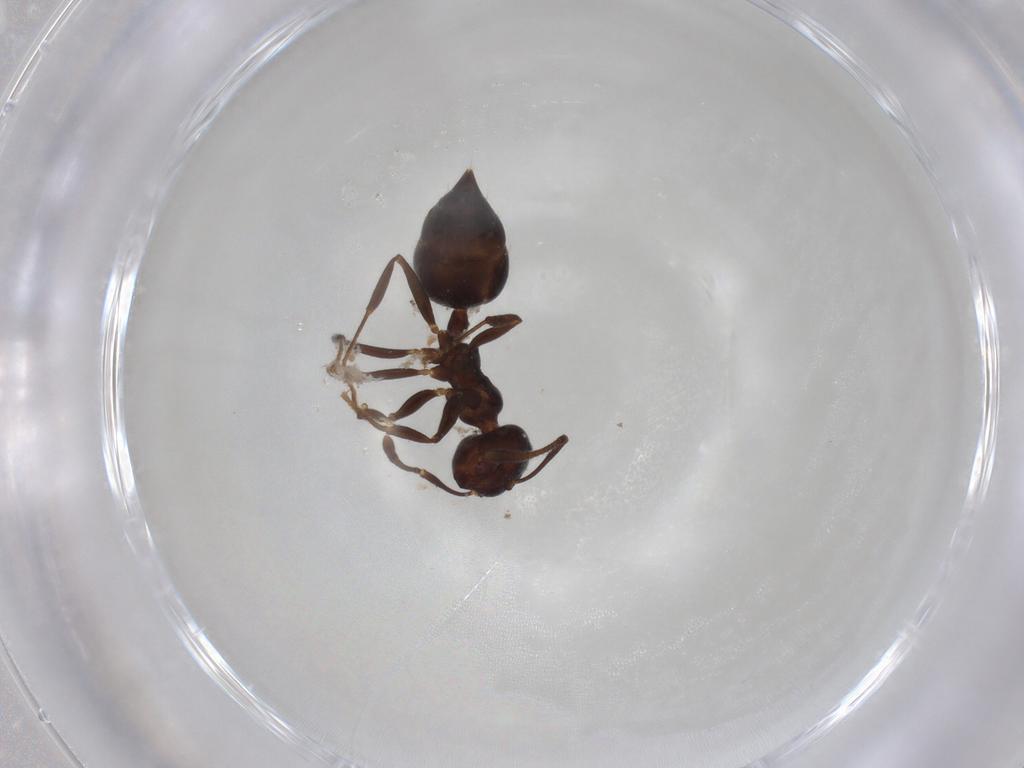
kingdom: Animalia
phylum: Arthropoda
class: Insecta
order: Hymenoptera
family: Formicidae
